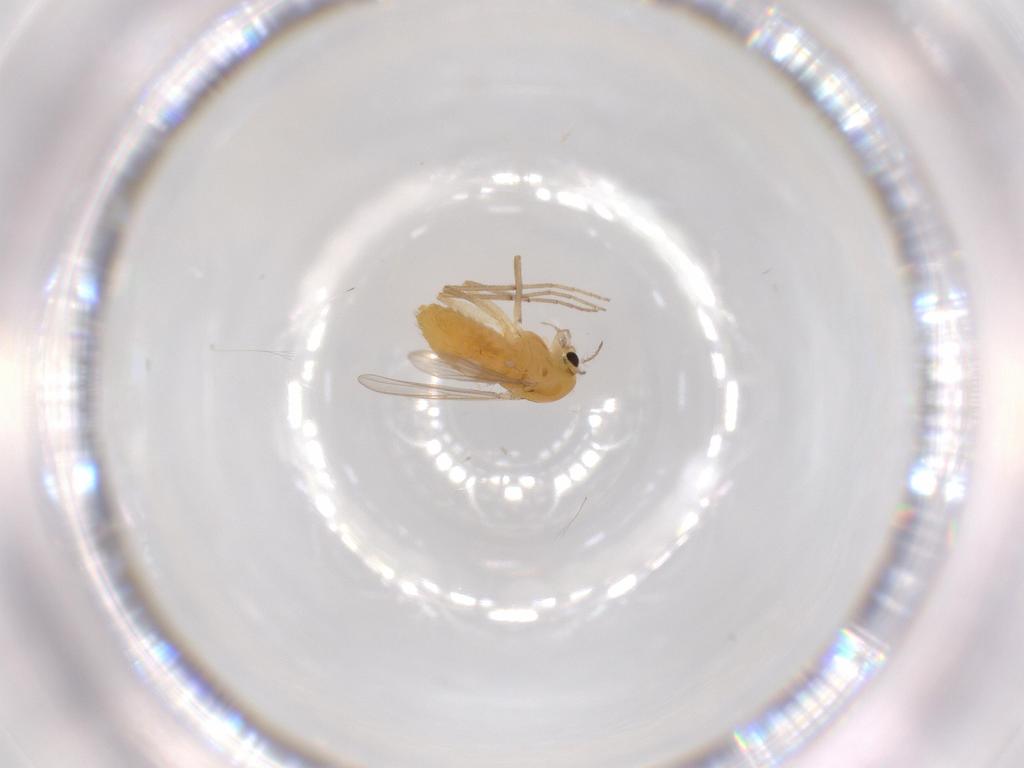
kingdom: Animalia
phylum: Arthropoda
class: Insecta
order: Diptera
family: Chironomidae
